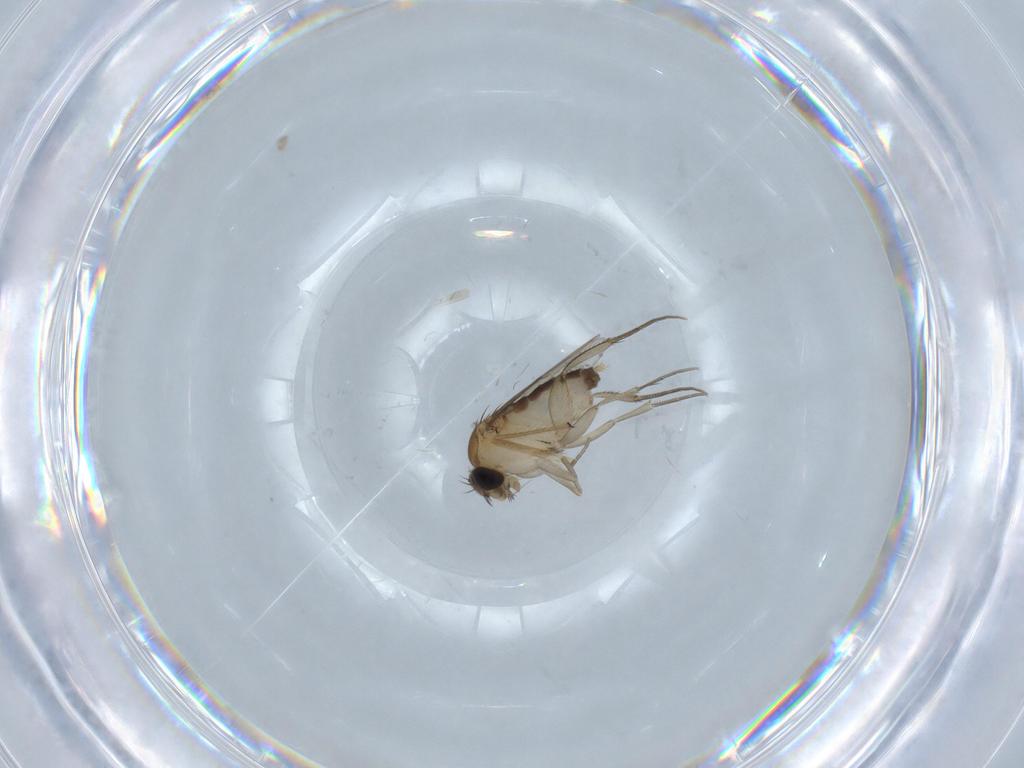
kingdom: Animalia
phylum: Arthropoda
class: Insecta
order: Diptera
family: Phoridae
